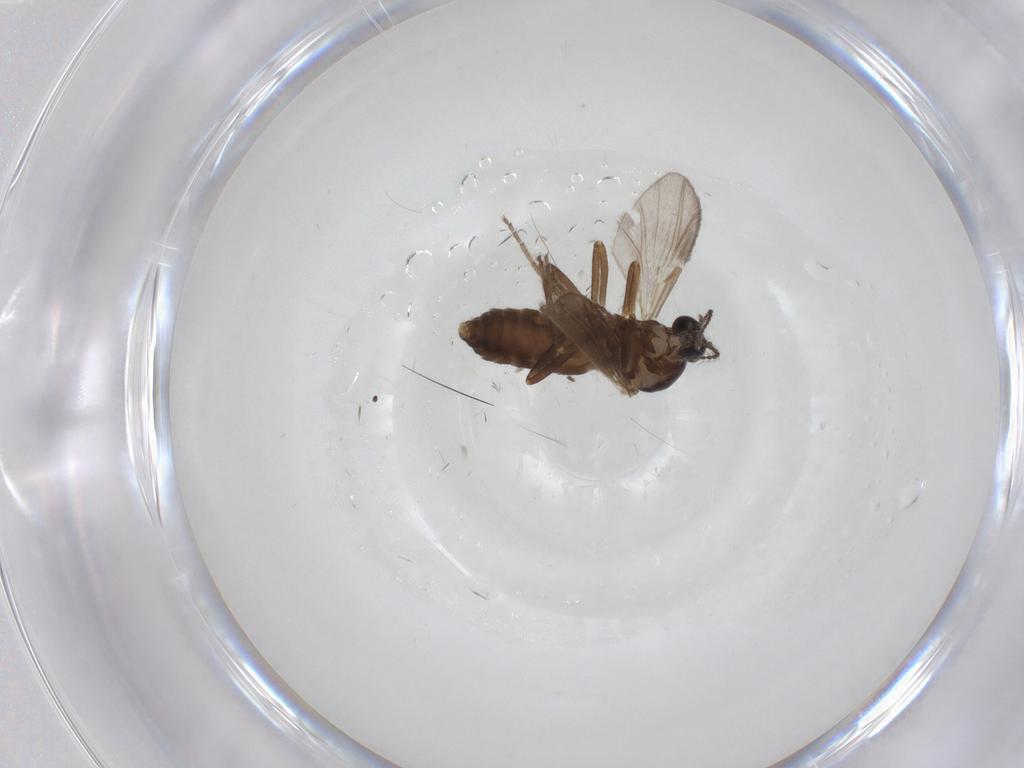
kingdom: Animalia
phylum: Arthropoda
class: Insecta
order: Diptera
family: Ceratopogonidae
